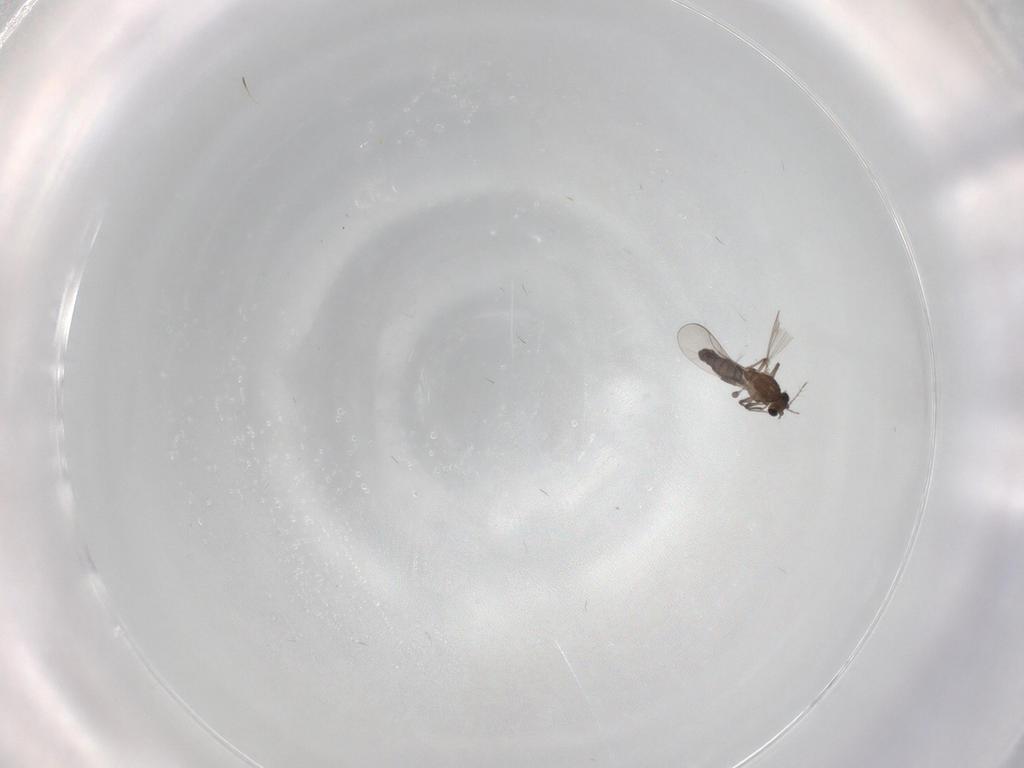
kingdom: Animalia
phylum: Arthropoda
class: Insecta
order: Diptera
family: Chironomidae
